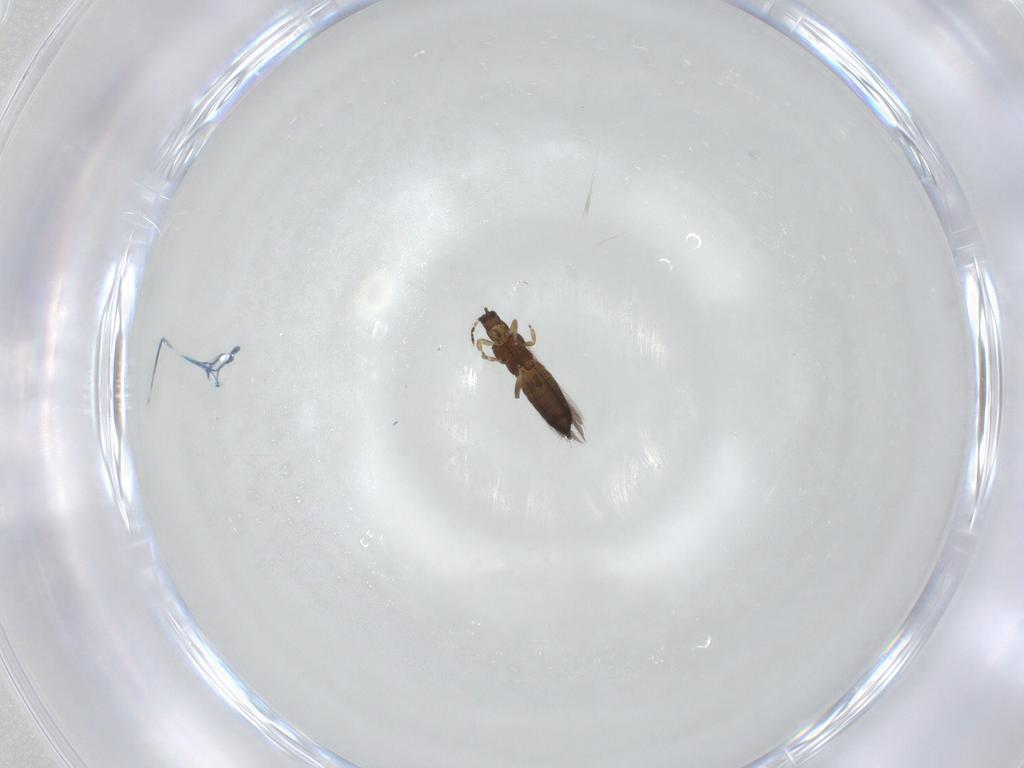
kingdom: Animalia
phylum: Arthropoda
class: Insecta
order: Thysanoptera
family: Thripidae
